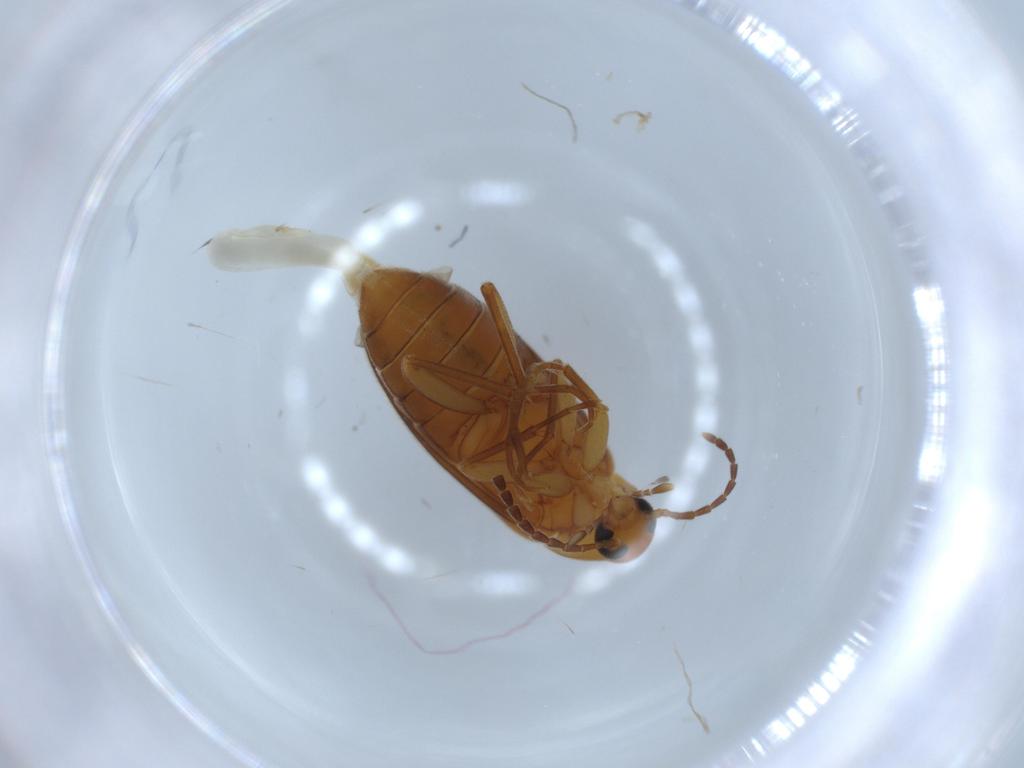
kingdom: Animalia
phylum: Arthropoda
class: Insecta
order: Coleoptera
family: Scraptiidae
